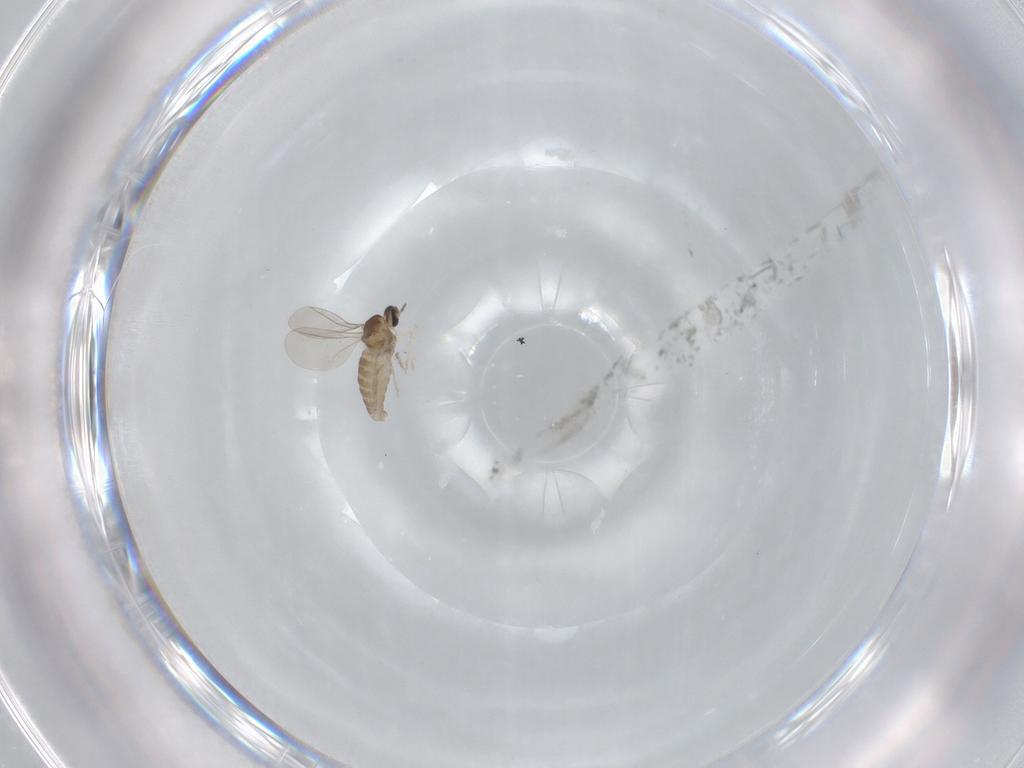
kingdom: Animalia
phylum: Arthropoda
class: Insecta
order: Diptera
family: Cecidomyiidae
